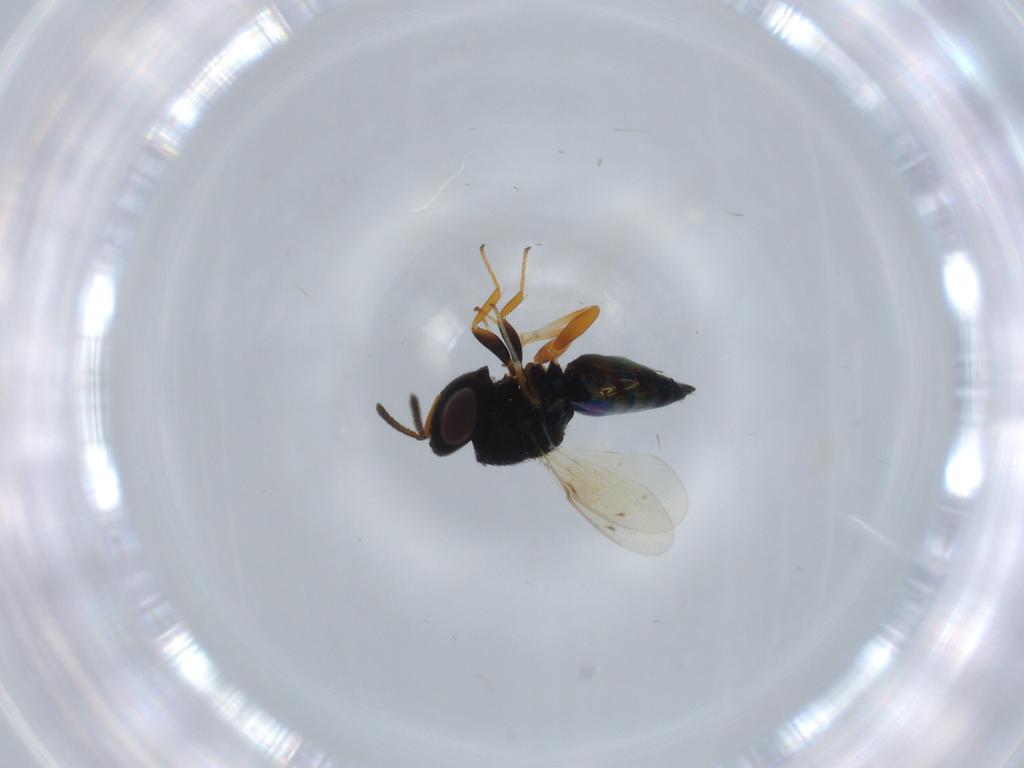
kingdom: Animalia
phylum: Arthropoda
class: Insecta
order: Hymenoptera
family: Pteromalidae
